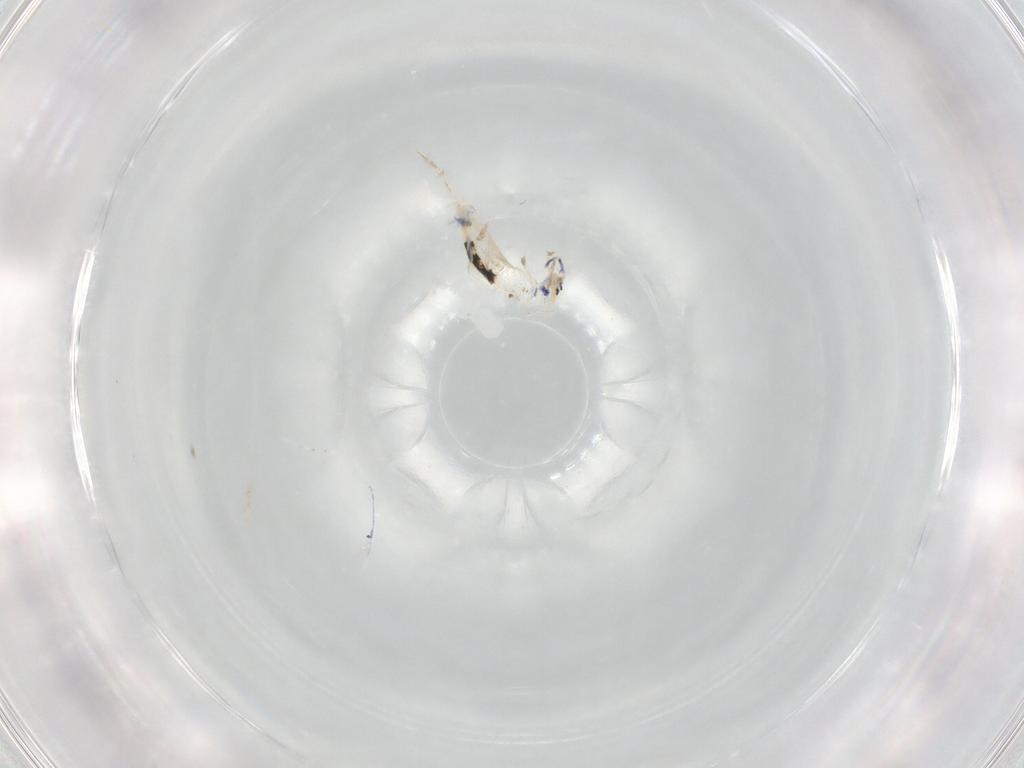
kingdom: Animalia
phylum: Arthropoda
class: Collembola
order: Entomobryomorpha
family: Entomobryidae
